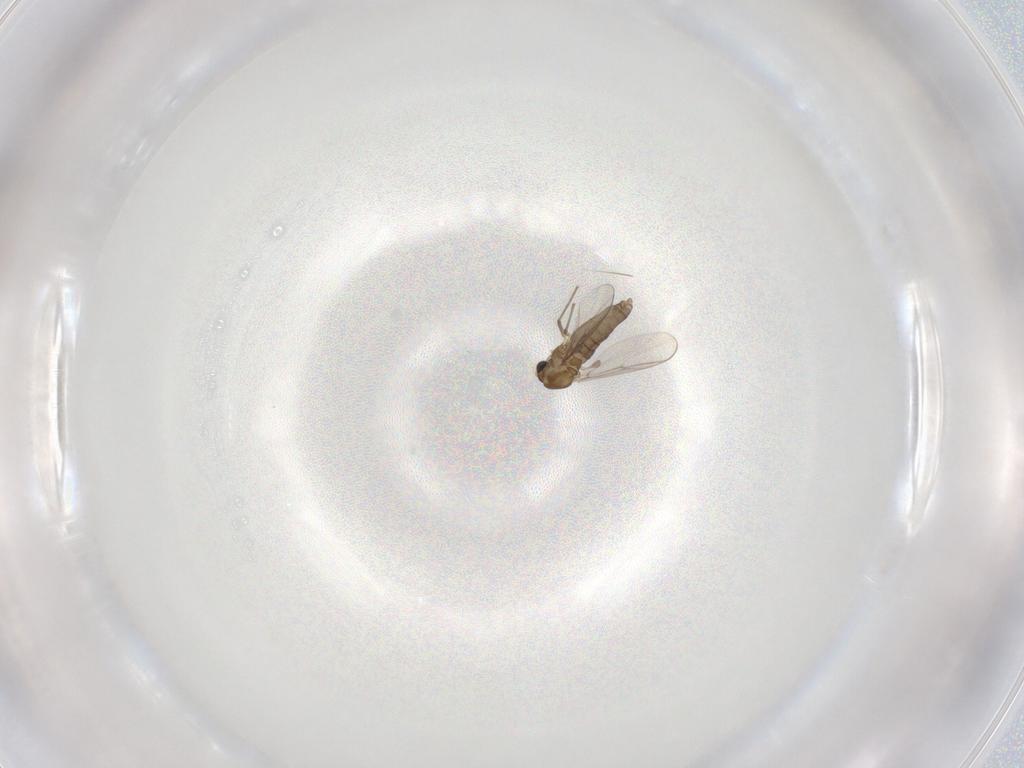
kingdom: Animalia
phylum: Arthropoda
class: Insecta
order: Diptera
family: Chironomidae
